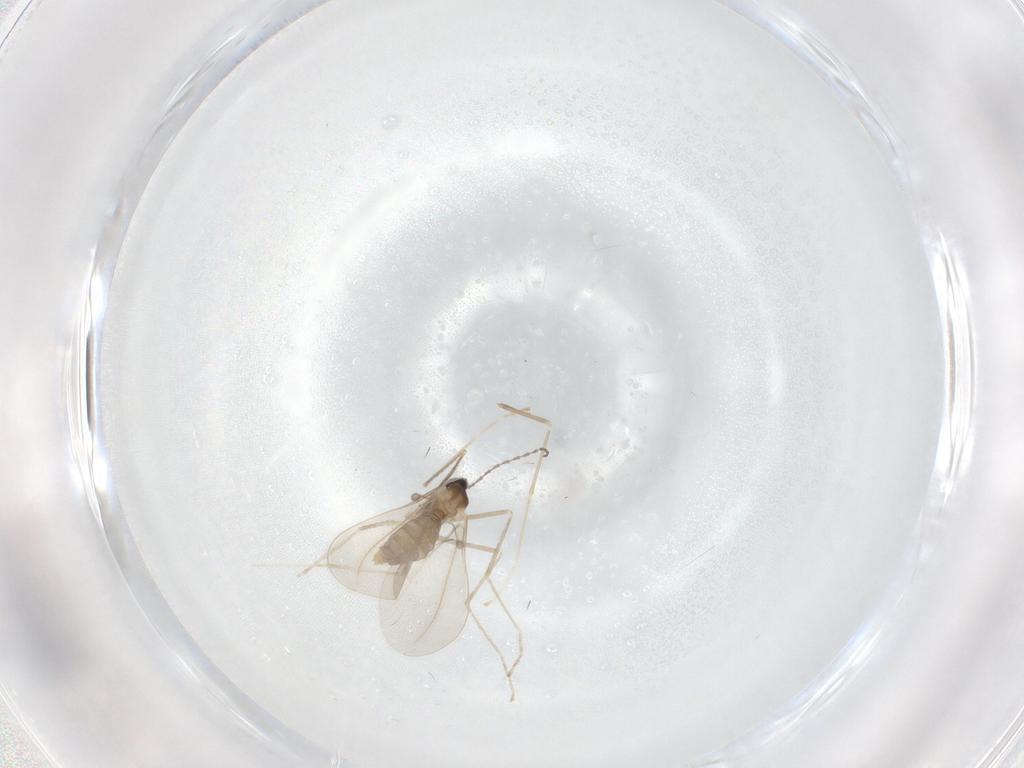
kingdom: Animalia
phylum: Arthropoda
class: Insecta
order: Diptera
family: Cecidomyiidae
